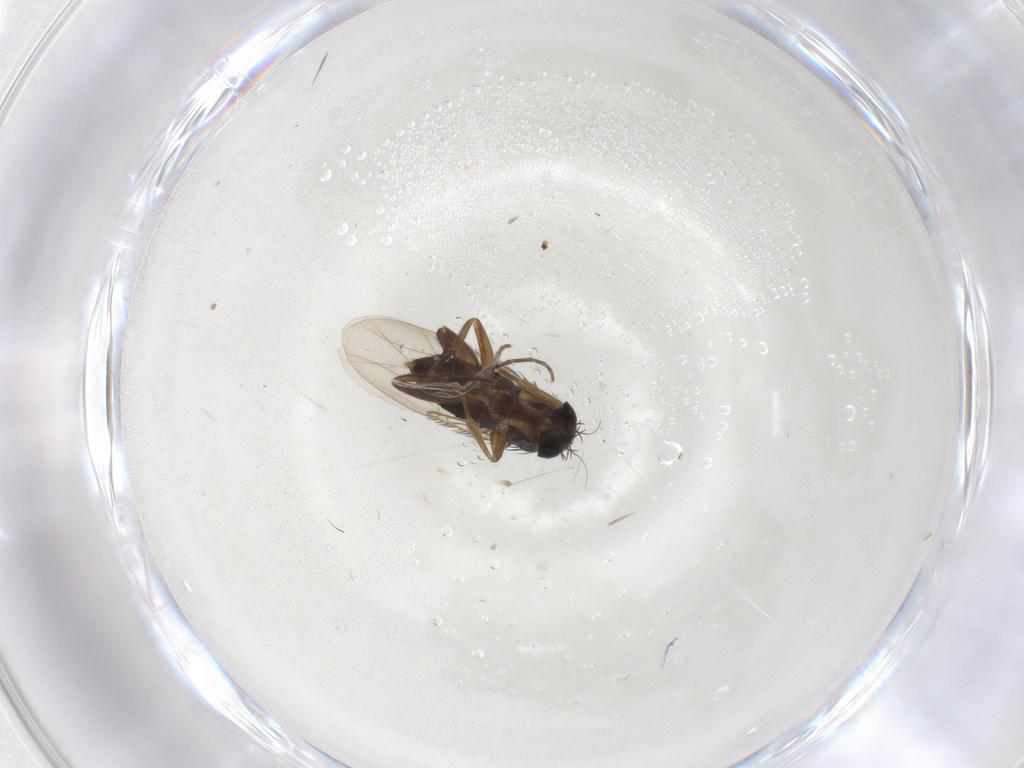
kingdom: Animalia
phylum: Arthropoda
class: Insecta
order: Diptera
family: Phoridae
